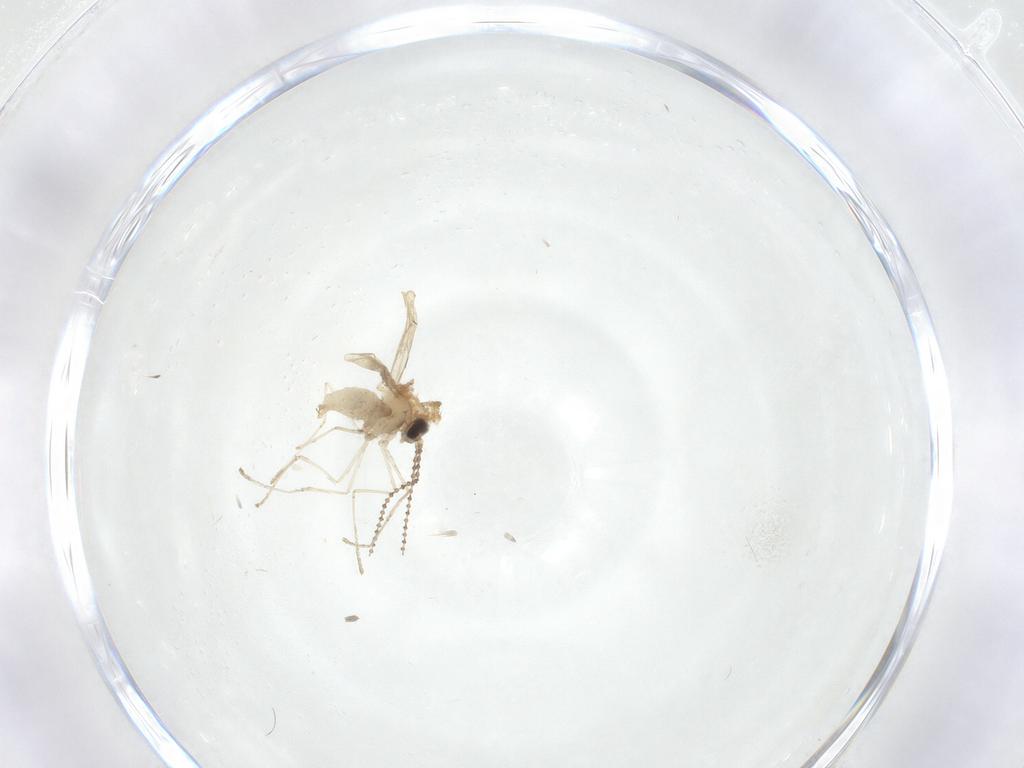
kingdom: Animalia
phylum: Arthropoda
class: Insecta
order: Diptera
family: Cecidomyiidae
